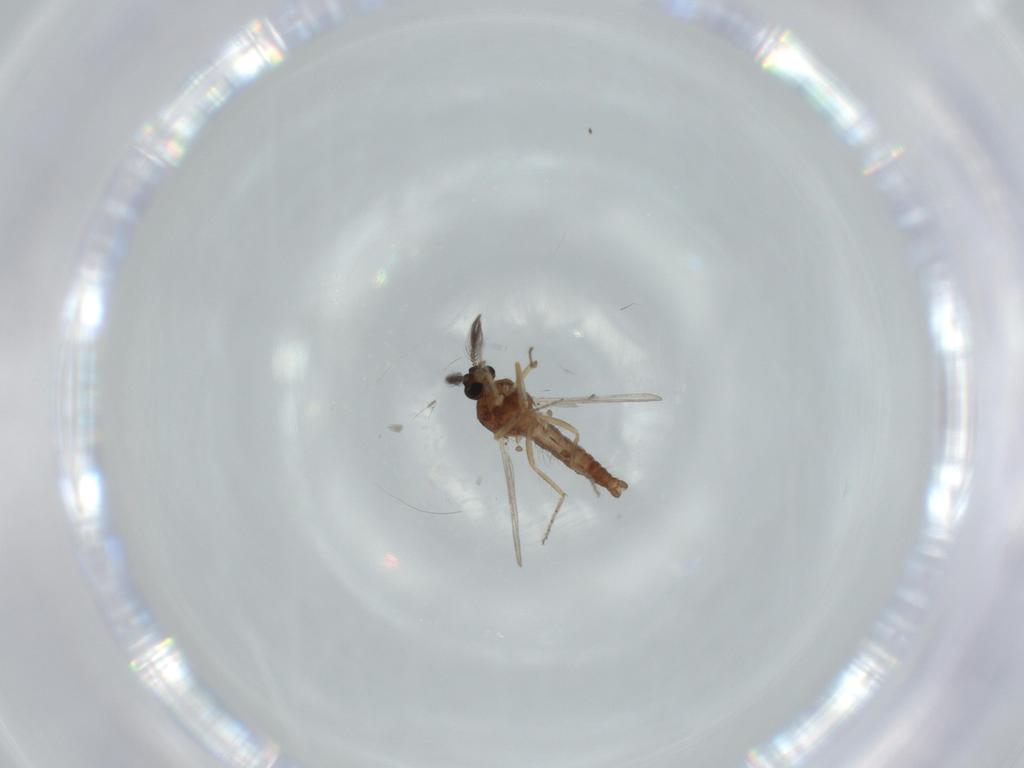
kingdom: Animalia
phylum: Arthropoda
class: Insecta
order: Diptera
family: Ceratopogonidae
